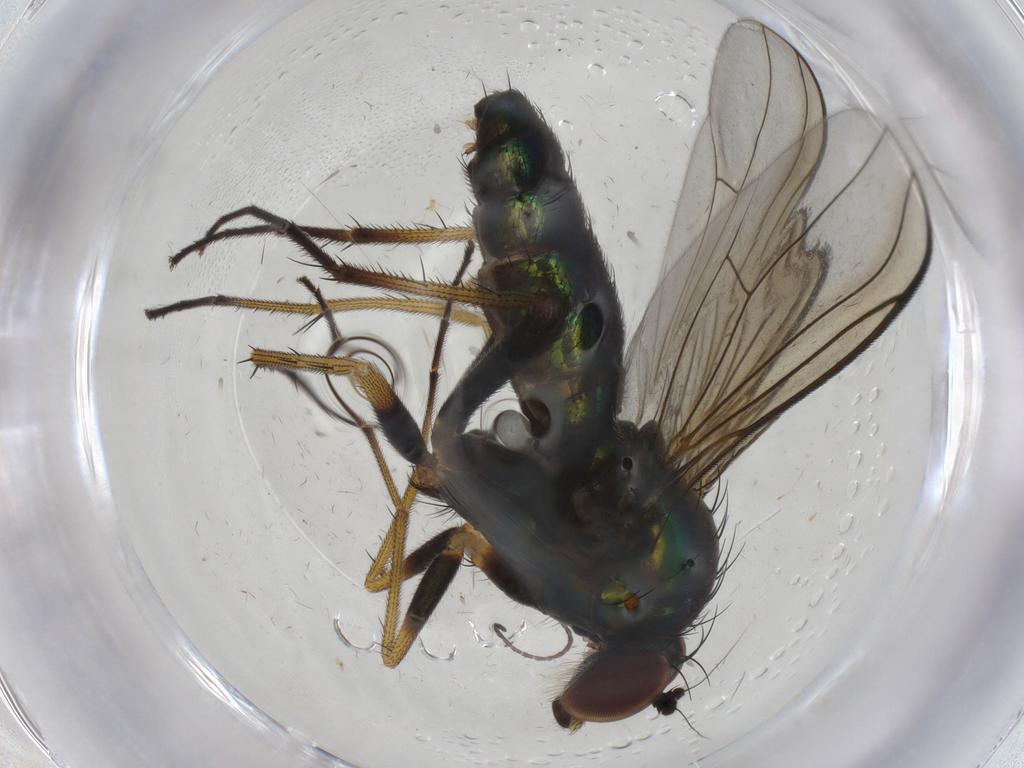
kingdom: Animalia
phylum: Arthropoda
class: Insecta
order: Diptera
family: Dolichopodidae
